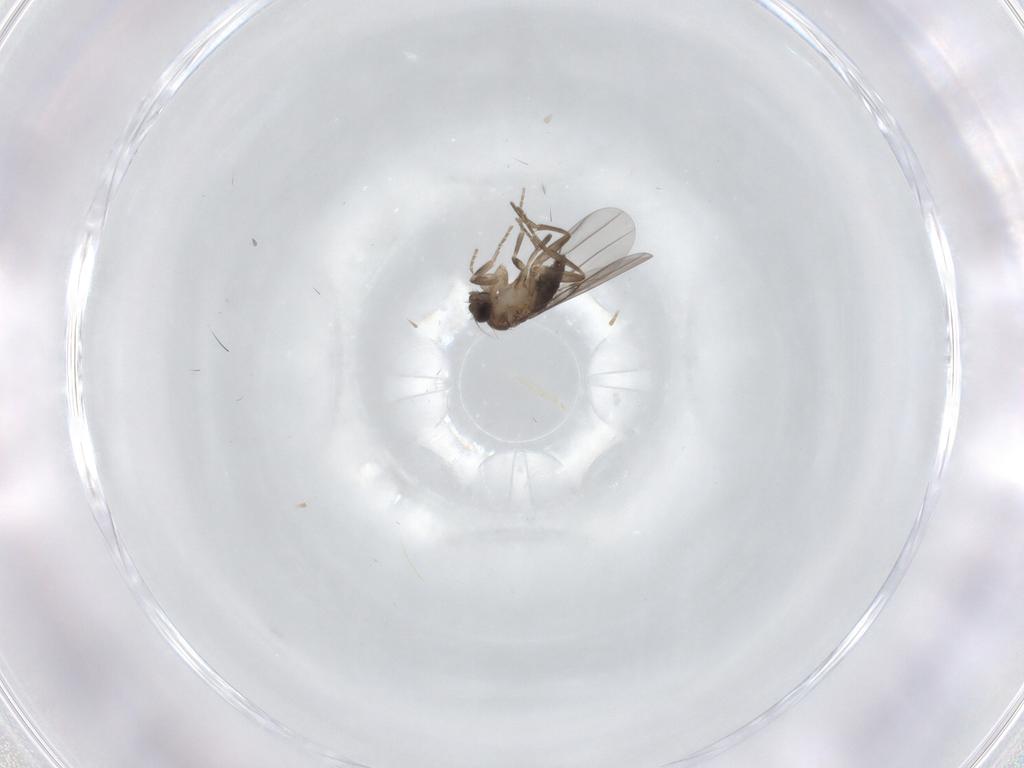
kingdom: Animalia
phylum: Arthropoda
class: Insecta
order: Diptera
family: Phoridae
